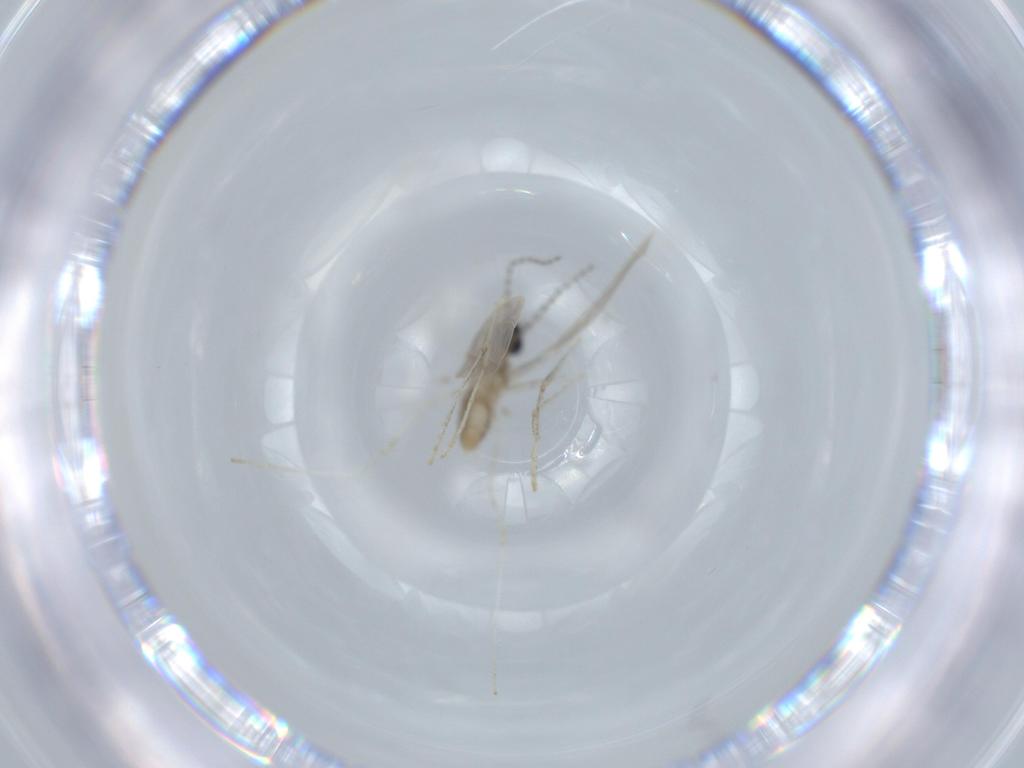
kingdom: Animalia
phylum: Arthropoda
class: Insecta
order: Diptera
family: Cecidomyiidae
